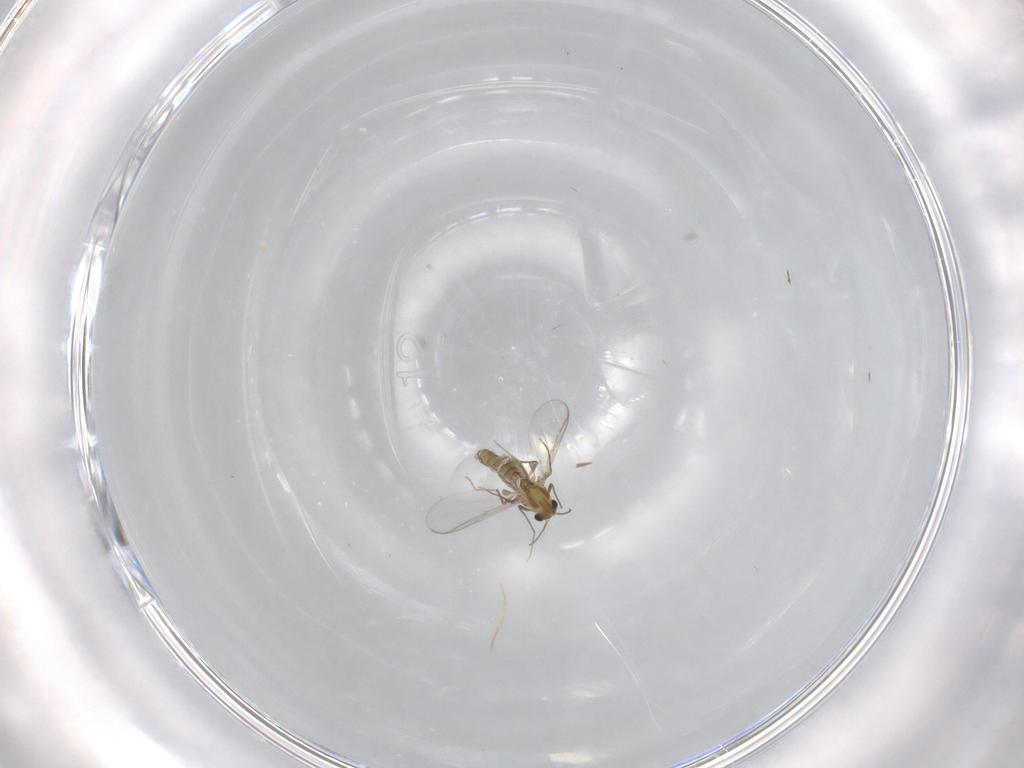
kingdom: Animalia
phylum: Arthropoda
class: Insecta
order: Diptera
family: Chironomidae
